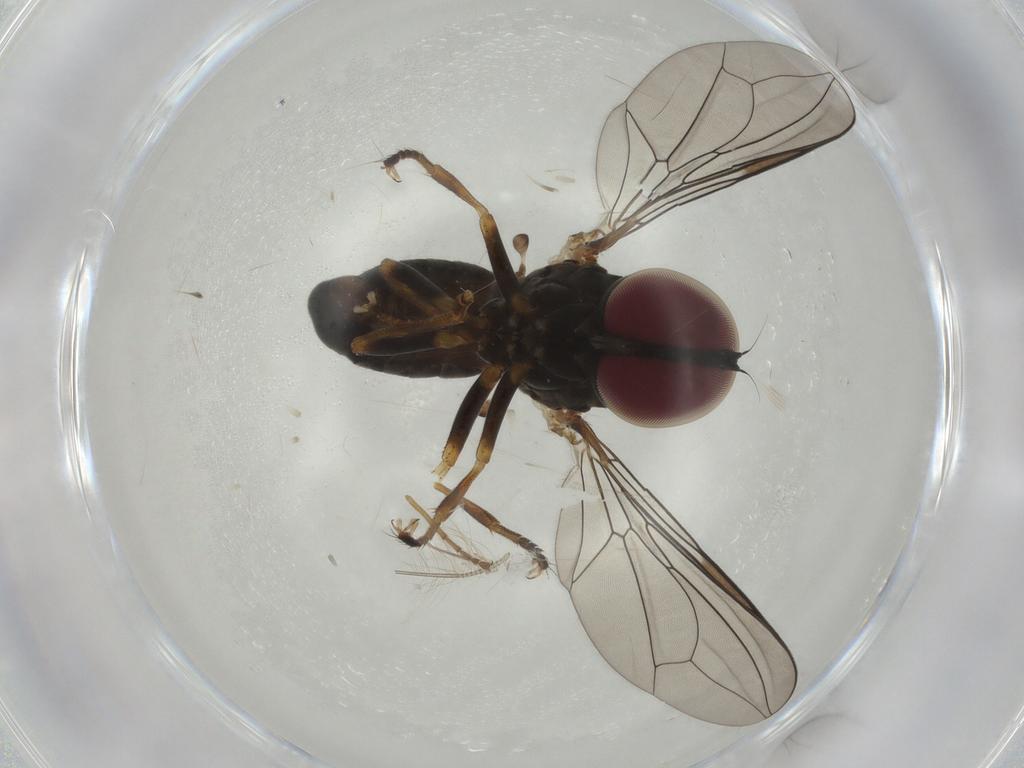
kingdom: Animalia
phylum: Arthropoda
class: Insecta
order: Diptera
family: Pipunculidae
